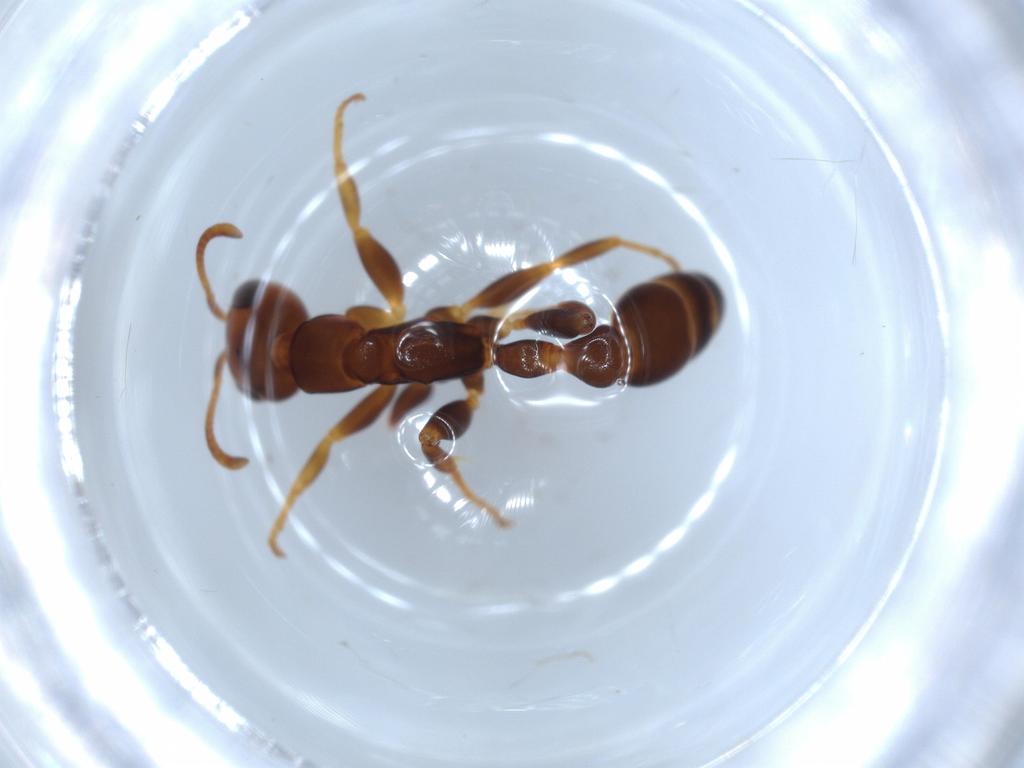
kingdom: Animalia
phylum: Arthropoda
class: Insecta
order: Hymenoptera
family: Formicidae
